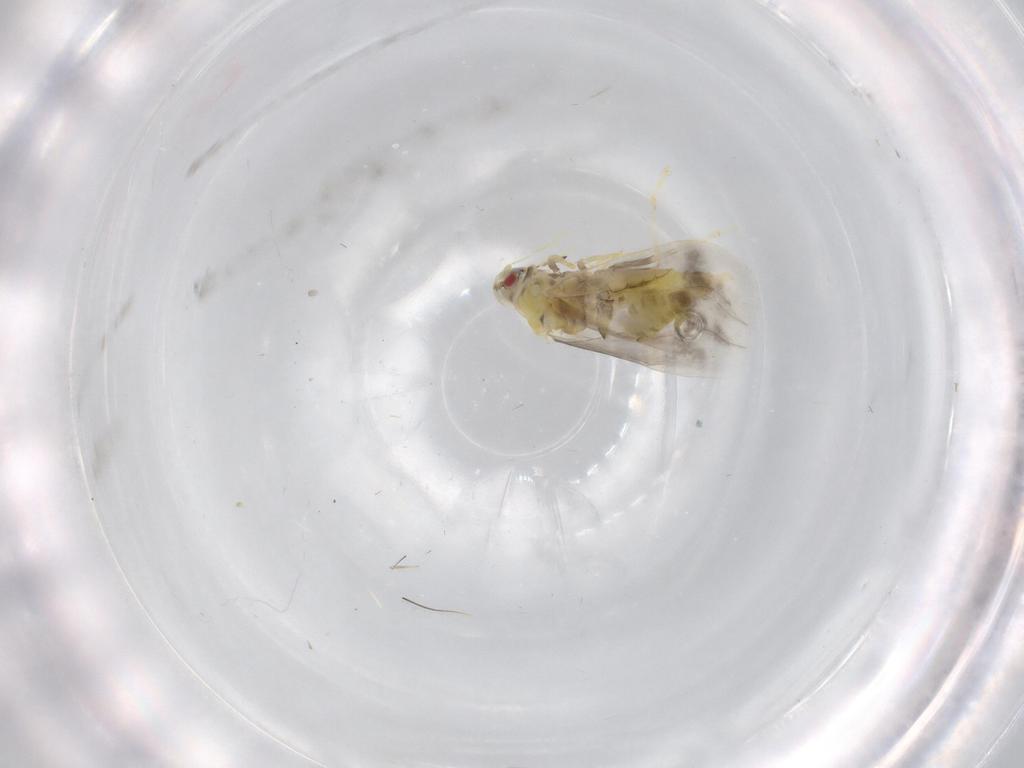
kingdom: Animalia
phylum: Arthropoda
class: Insecta
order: Hemiptera
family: Aleyrodidae
